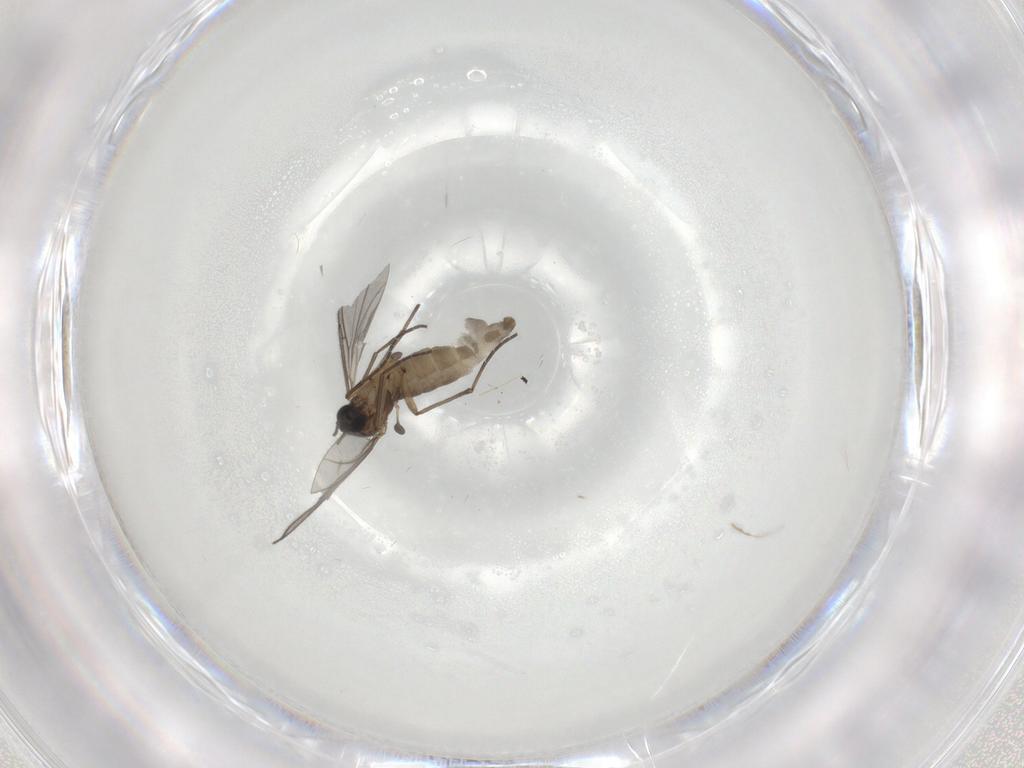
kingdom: Animalia
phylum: Arthropoda
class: Insecta
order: Diptera
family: Sciaridae
